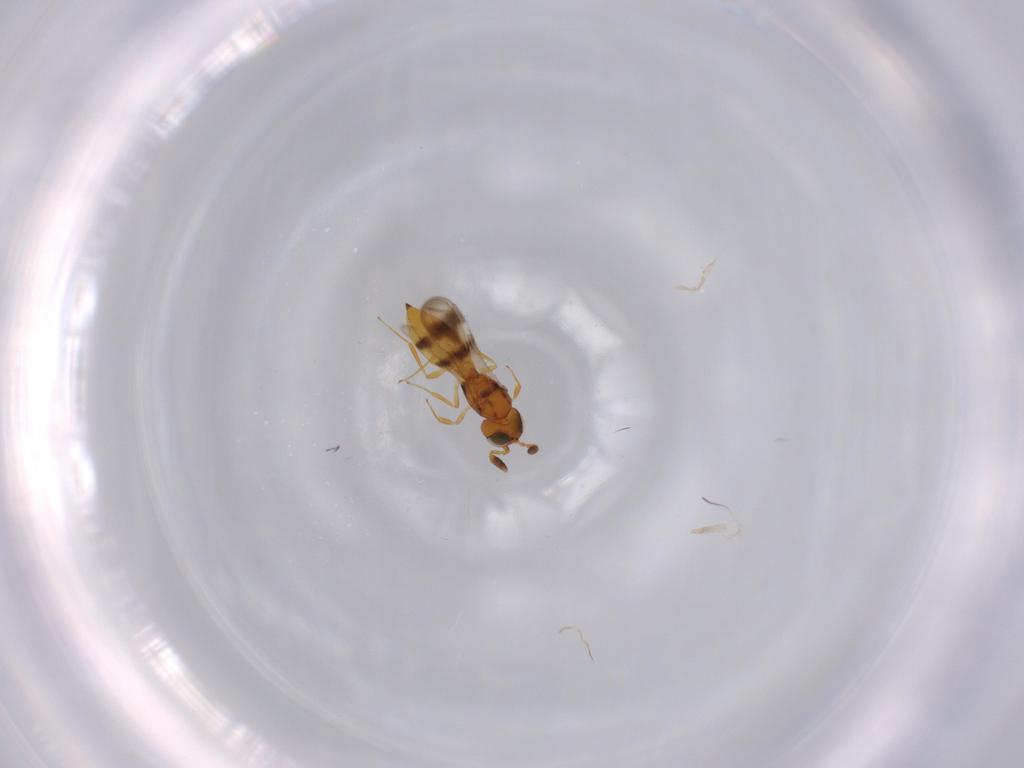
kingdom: Animalia
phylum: Arthropoda
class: Insecta
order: Hymenoptera
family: Scelionidae
